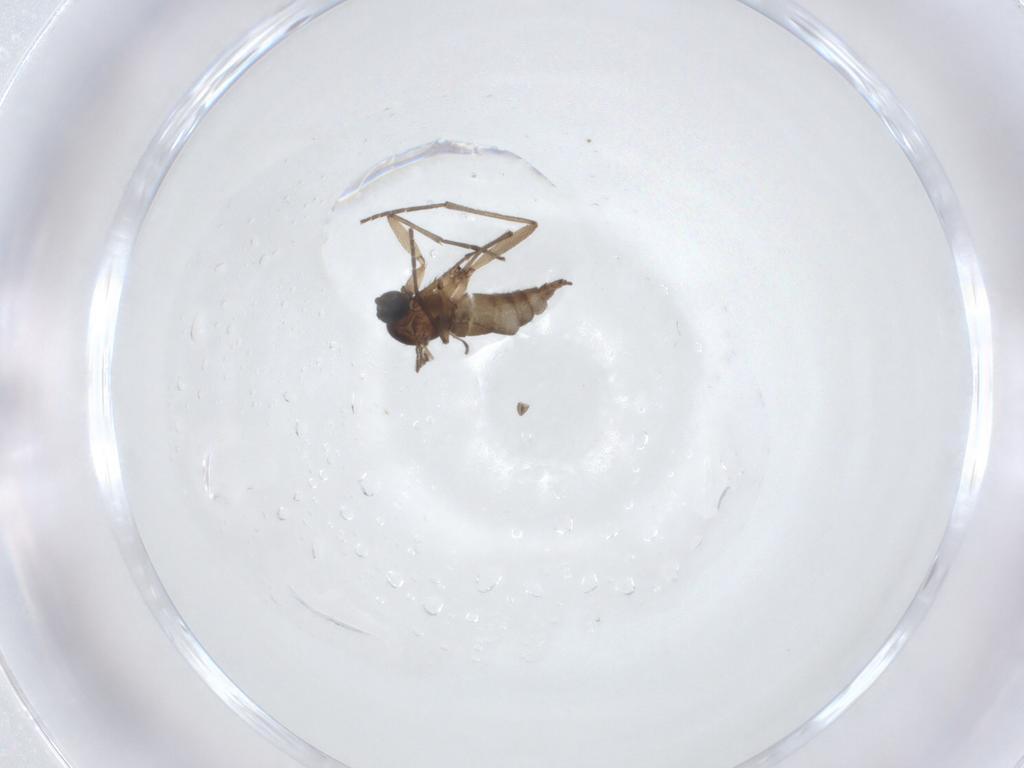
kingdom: Animalia
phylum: Arthropoda
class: Insecta
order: Diptera
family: Sciaridae
